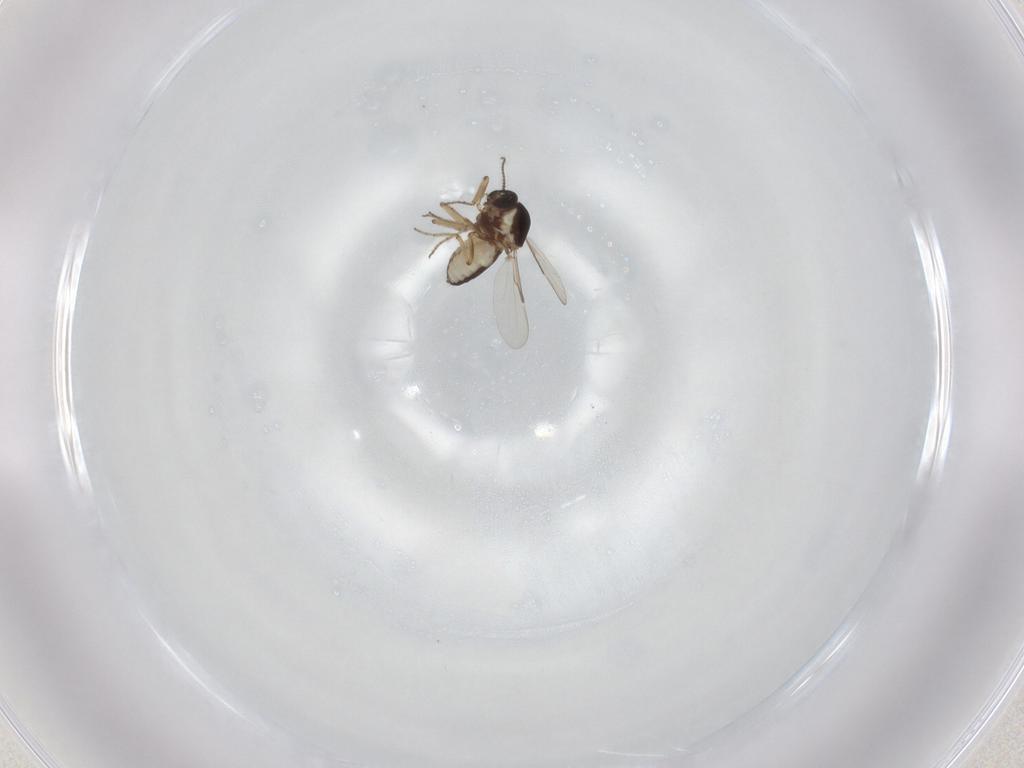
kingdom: Animalia
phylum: Arthropoda
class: Insecta
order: Diptera
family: Ceratopogonidae
